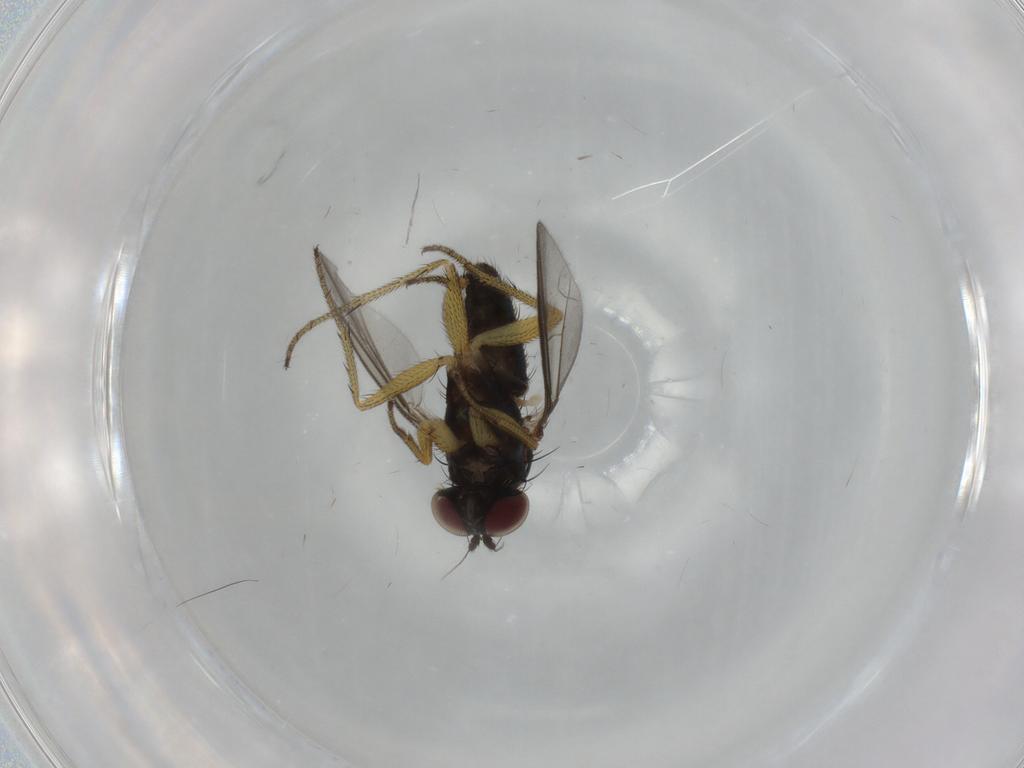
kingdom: Animalia
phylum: Arthropoda
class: Insecta
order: Diptera
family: Dolichopodidae
